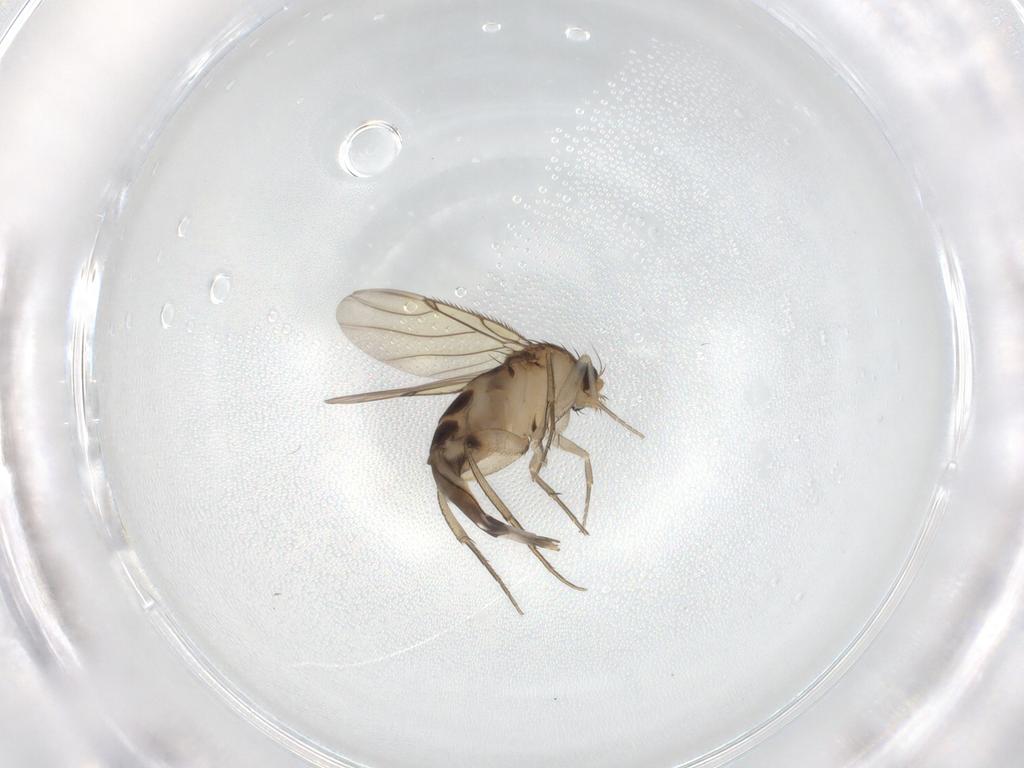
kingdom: Animalia
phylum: Arthropoda
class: Insecta
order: Diptera
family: Phoridae
